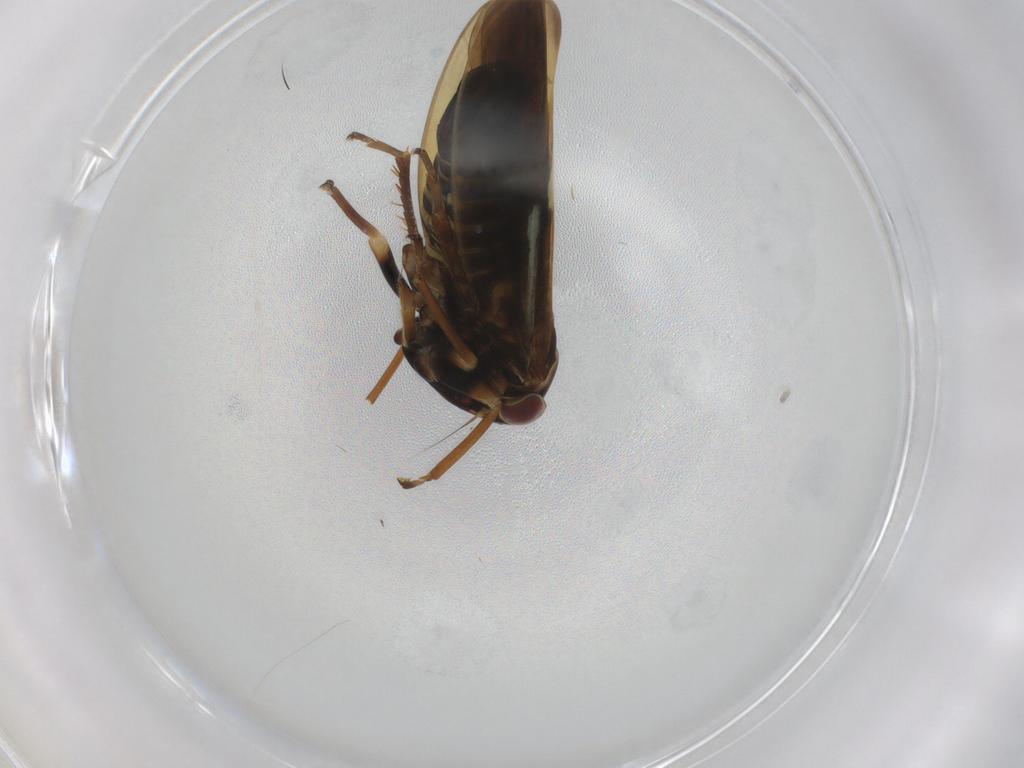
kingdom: Animalia
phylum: Arthropoda
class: Insecta
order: Hemiptera
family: Cicadellidae
